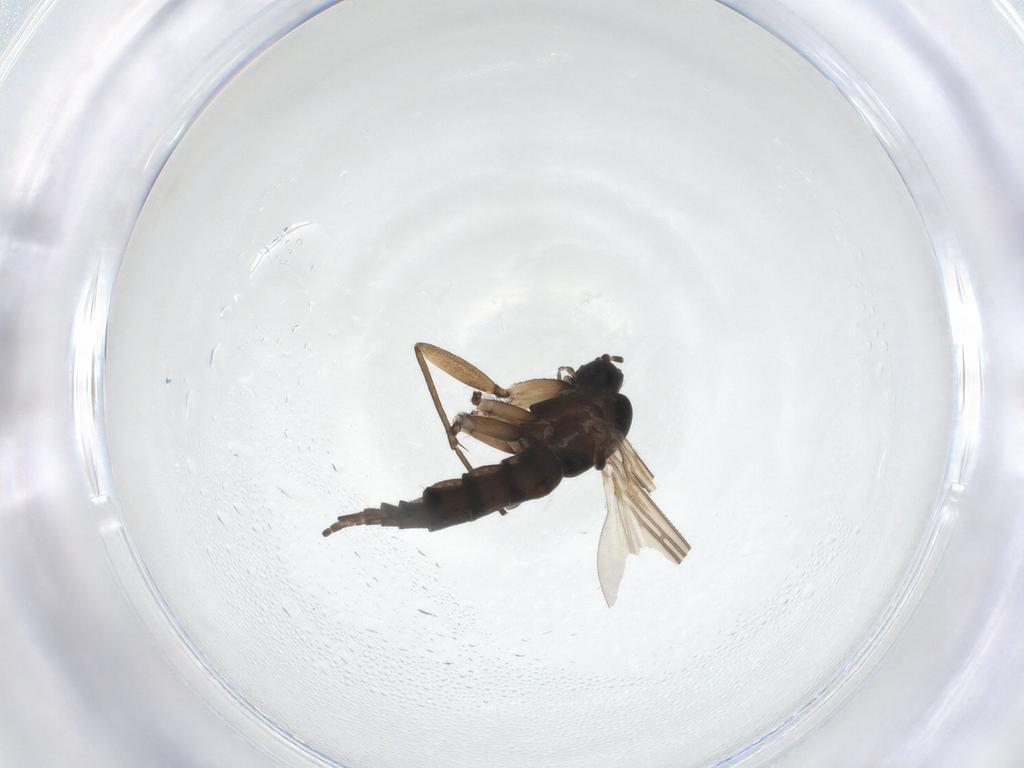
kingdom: Animalia
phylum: Arthropoda
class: Insecta
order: Diptera
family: Sciaridae
